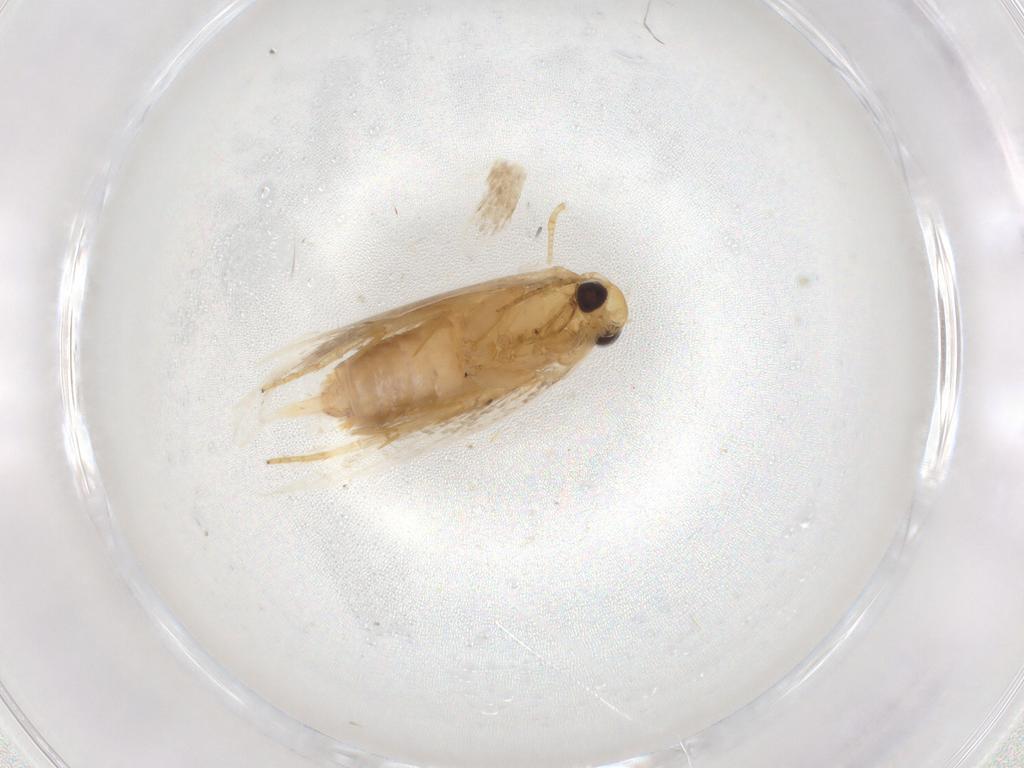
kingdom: Animalia
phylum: Arthropoda
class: Insecta
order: Lepidoptera
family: Depressariidae
